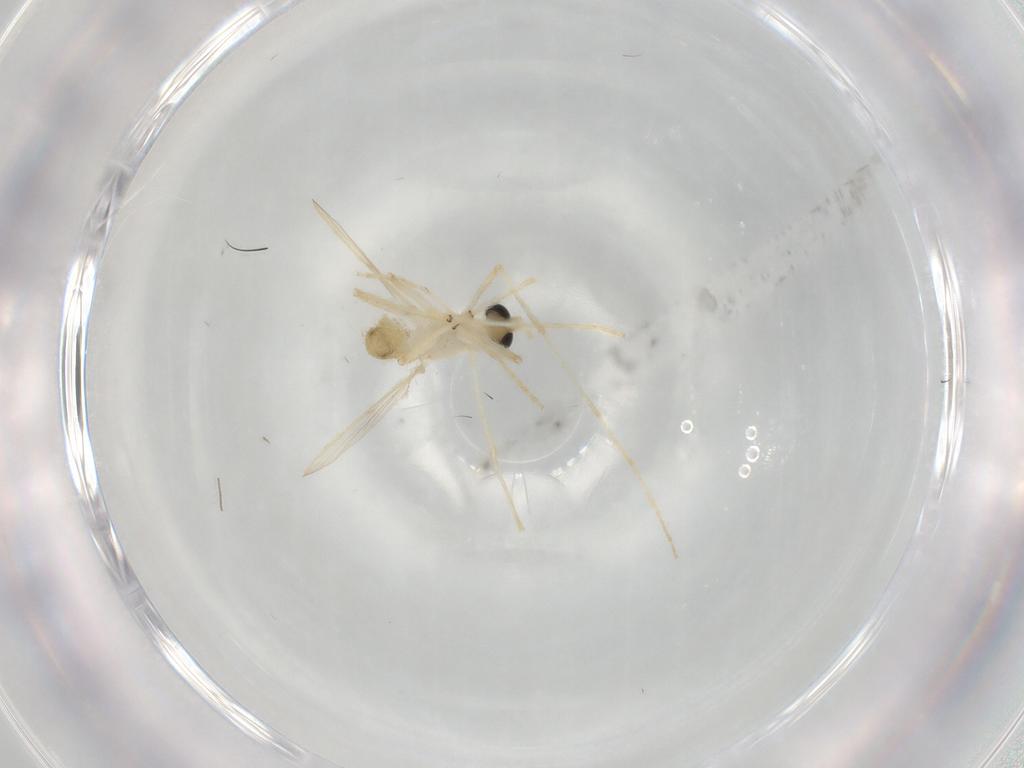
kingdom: Animalia
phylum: Arthropoda
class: Insecta
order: Diptera
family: Chironomidae
